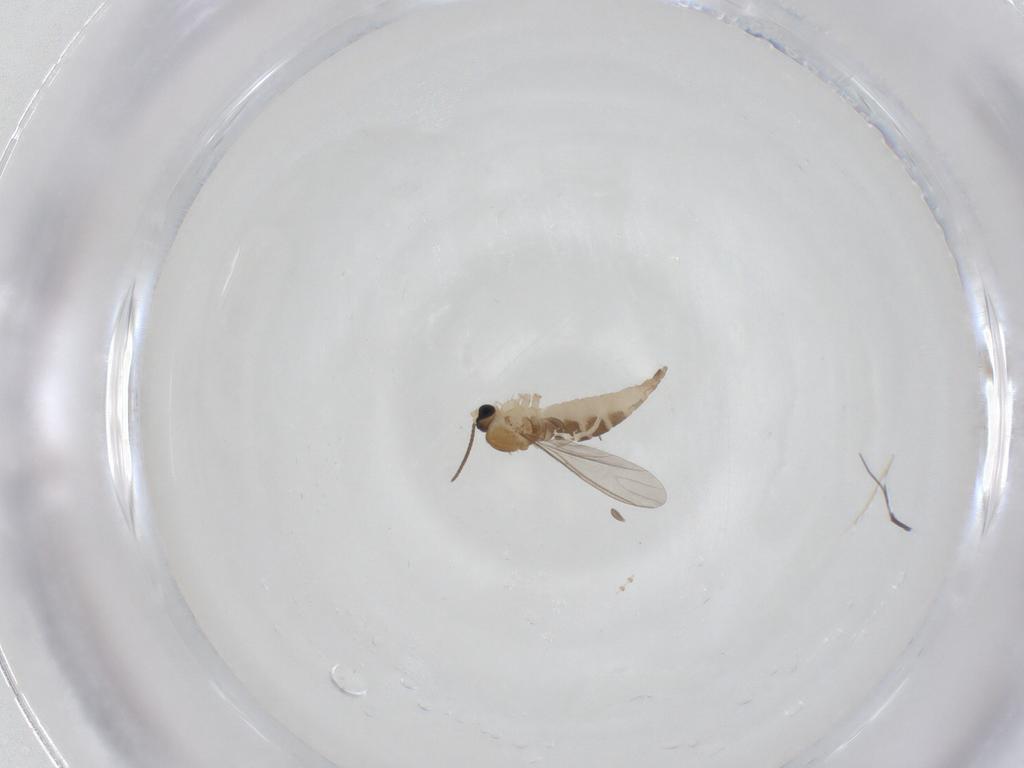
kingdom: Animalia
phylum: Arthropoda
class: Insecta
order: Diptera
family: Sciaridae
